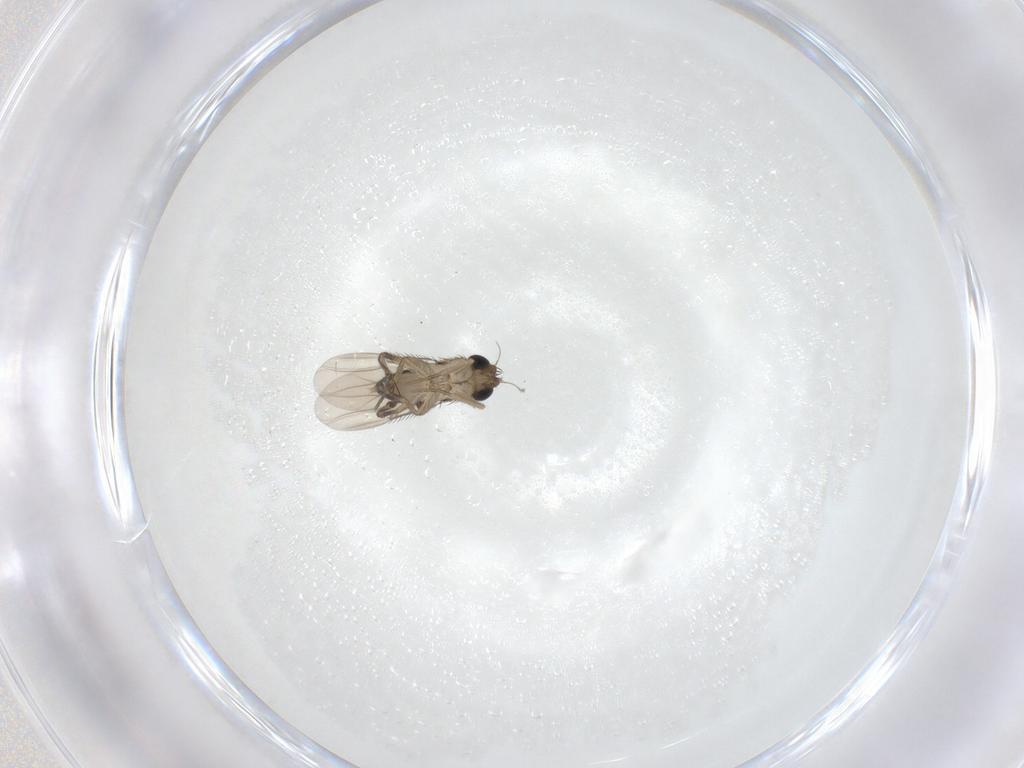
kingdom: Animalia
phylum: Arthropoda
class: Insecta
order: Diptera
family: Phoridae
